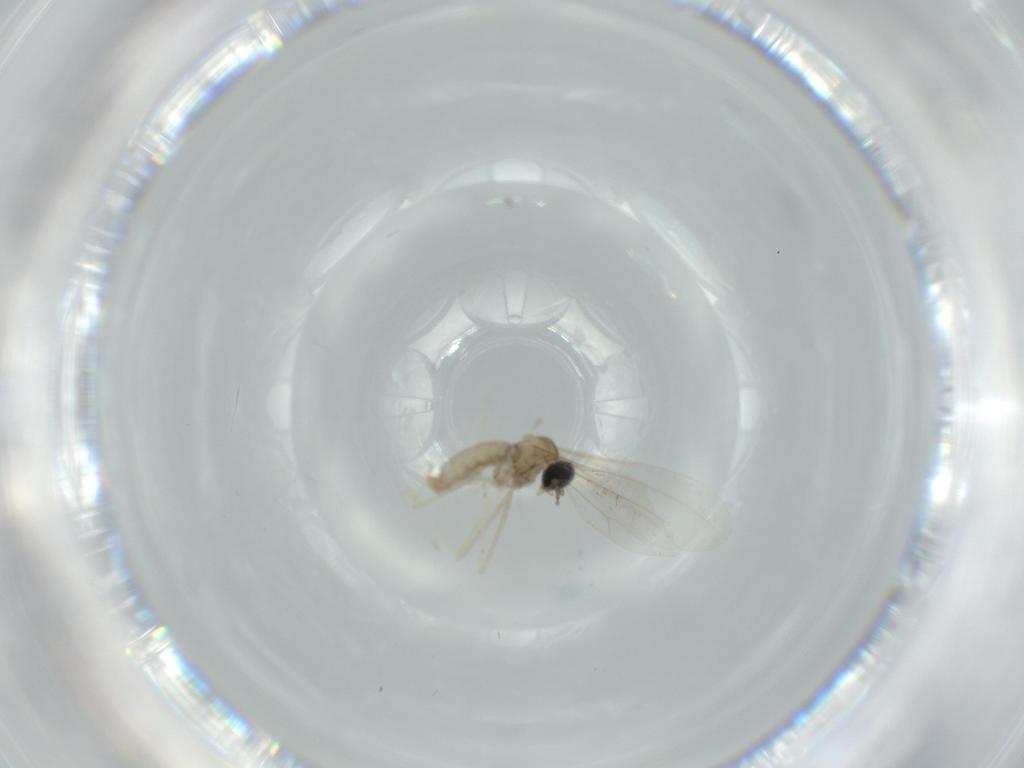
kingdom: Animalia
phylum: Arthropoda
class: Insecta
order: Diptera
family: Cecidomyiidae
